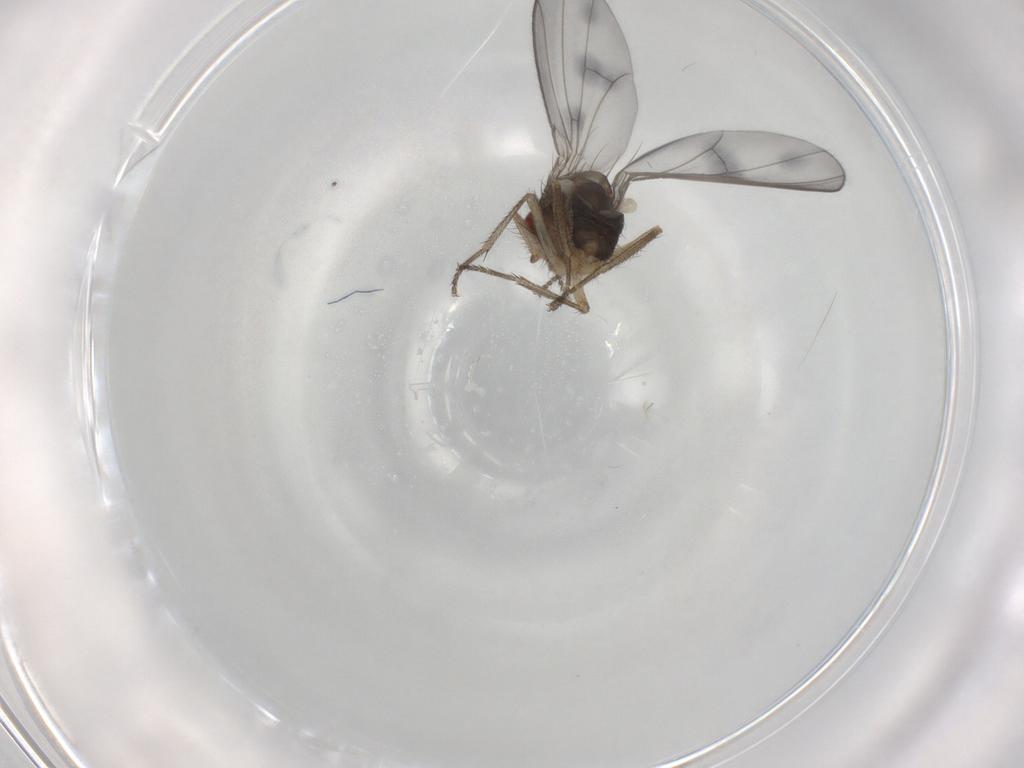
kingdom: Animalia
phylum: Arthropoda
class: Insecta
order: Diptera
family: Drosophilidae
